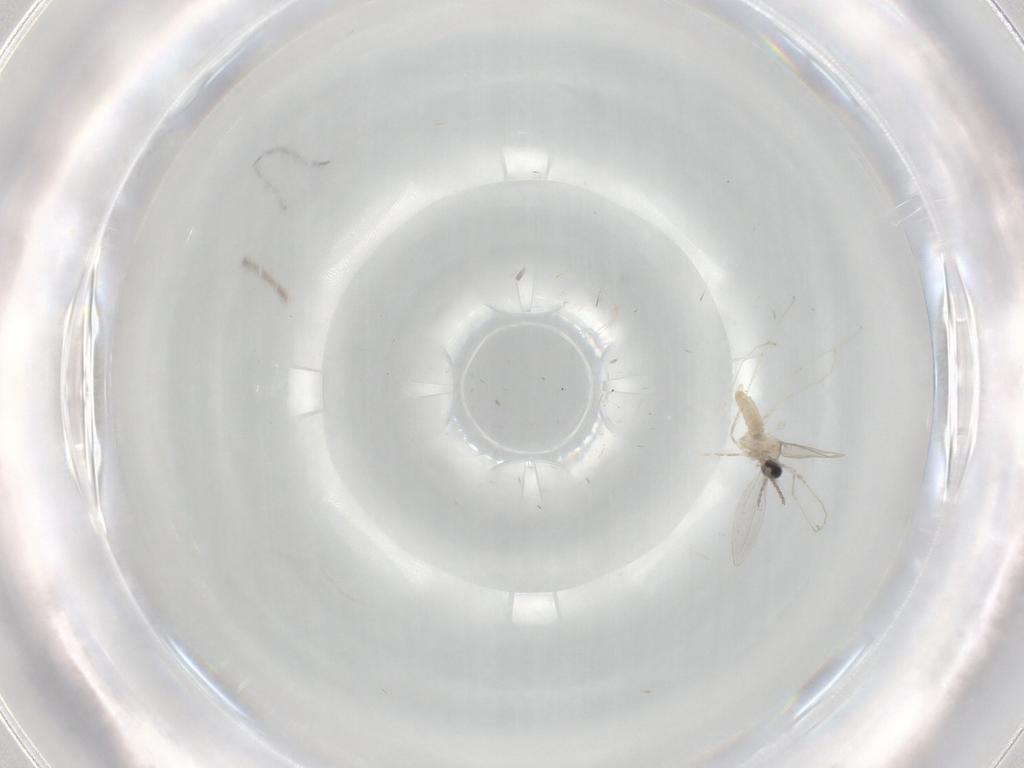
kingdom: Animalia
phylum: Arthropoda
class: Insecta
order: Diptera
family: Cecidomyiidae
